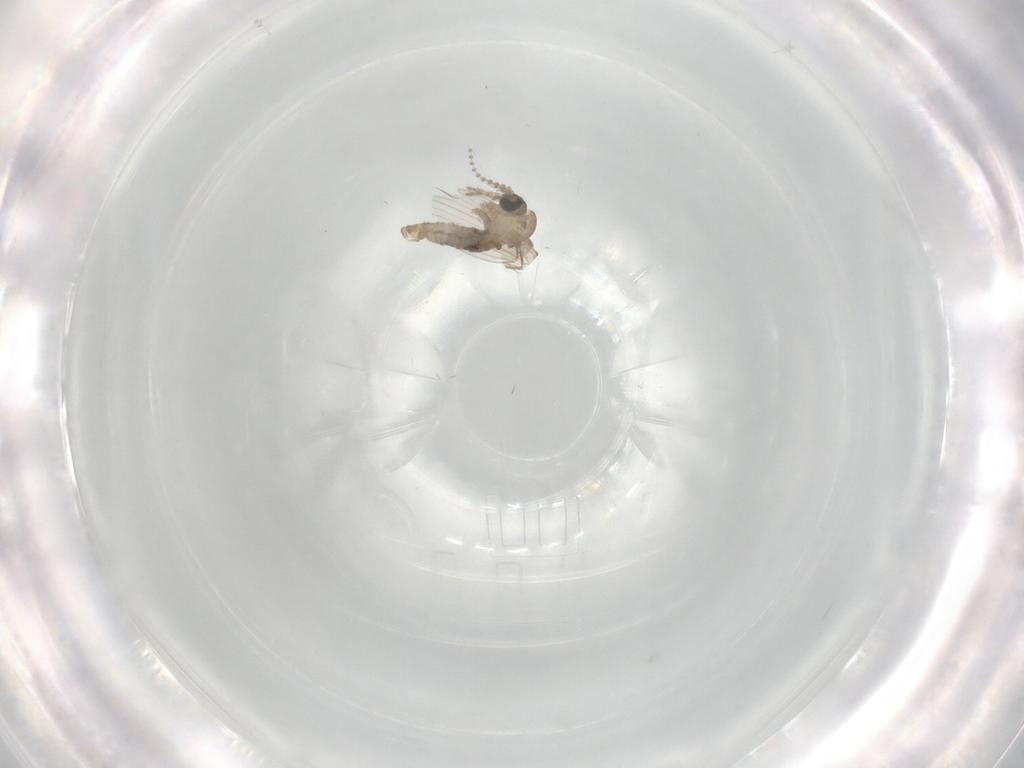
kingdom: Animalia
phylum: Arthropoda
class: Insecta
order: Diptera
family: Psychodidae
